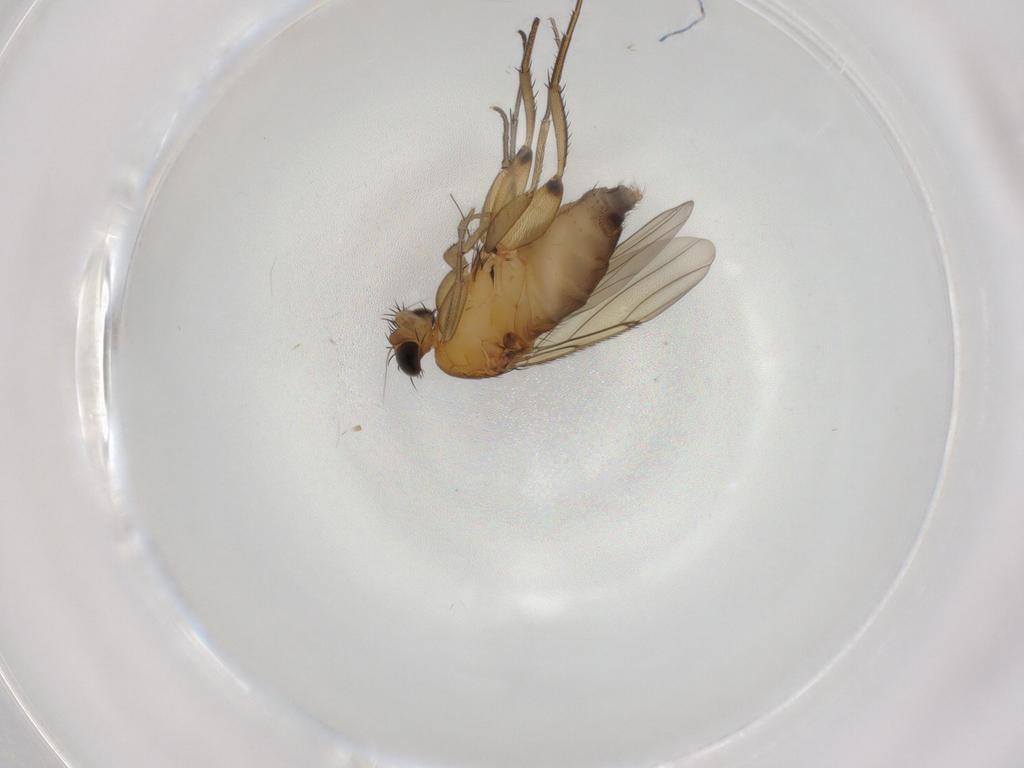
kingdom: Animalia
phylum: Arthropoda
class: Insecta
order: Diptera
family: Phoridae
